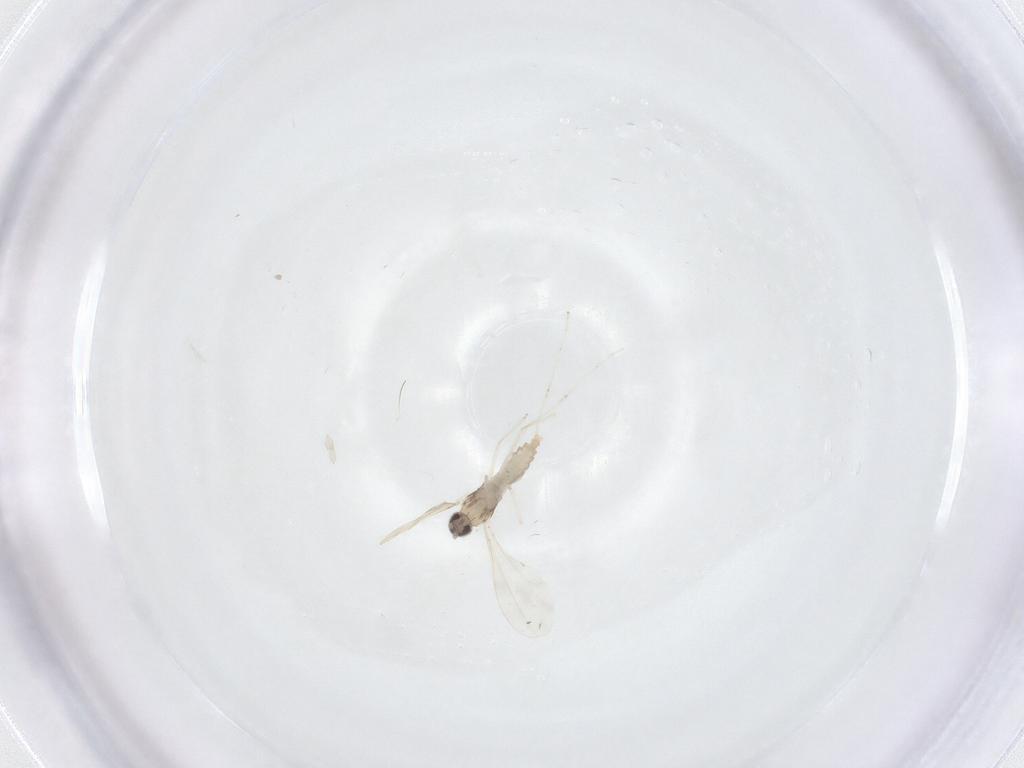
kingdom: Animalia
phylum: Arthropoda
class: Insecta
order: Diptera
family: Cecidomyiidae
